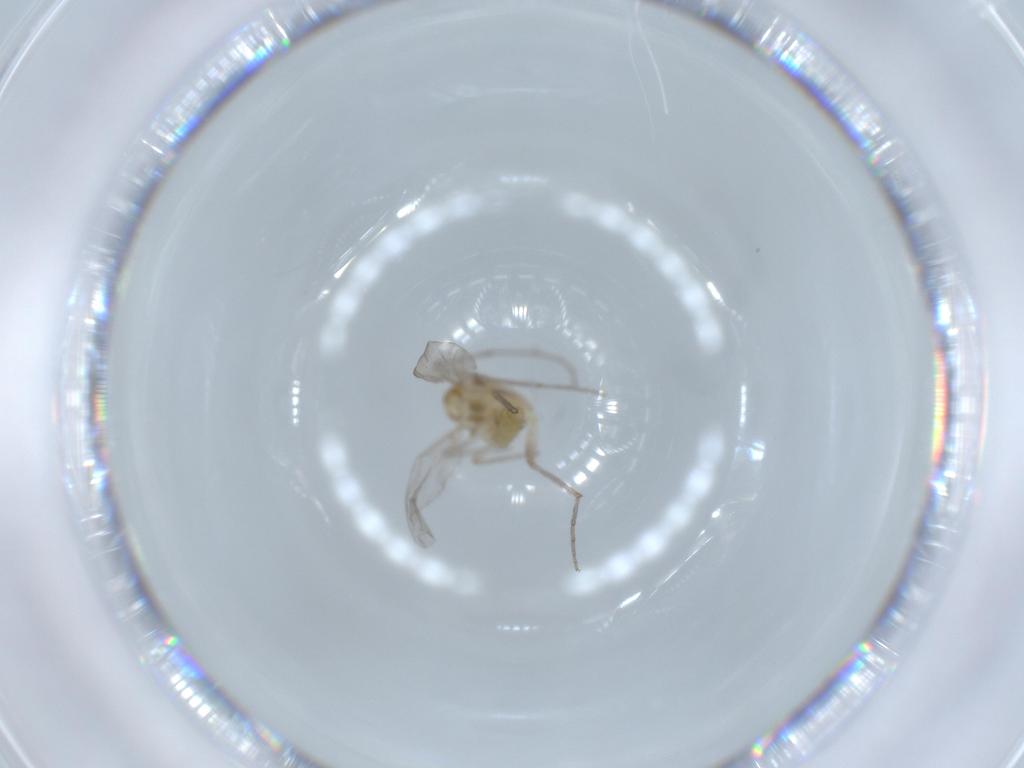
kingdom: Animalia
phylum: Arthropoda
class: Insecta
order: Diptera
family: Chironomidae
